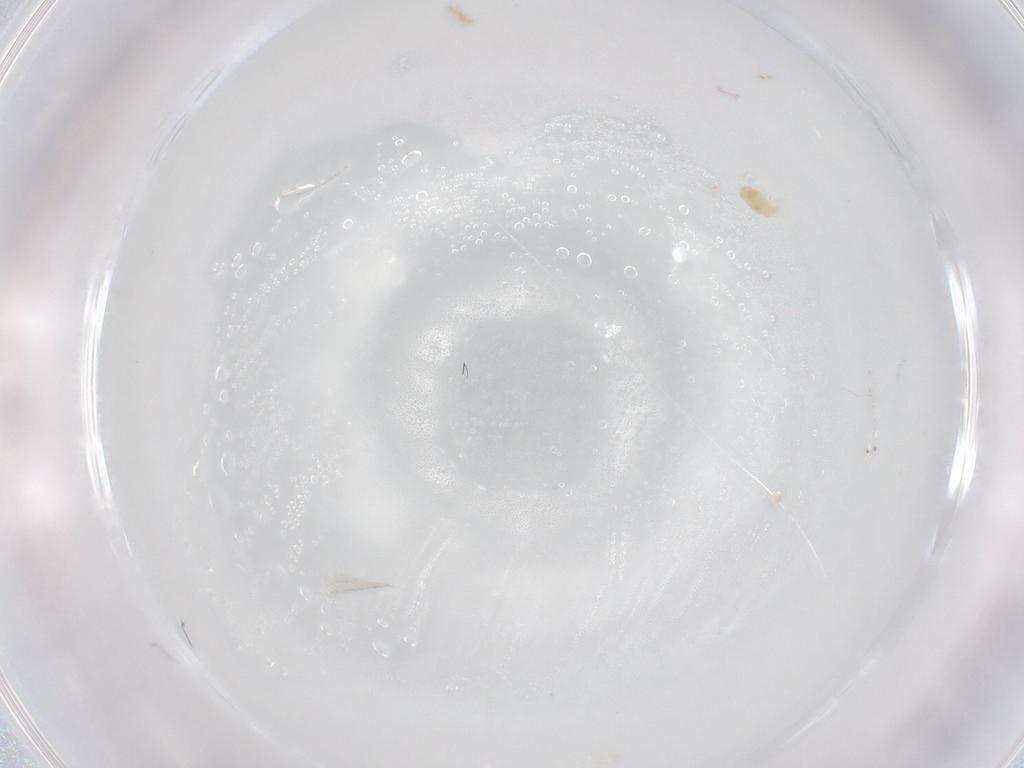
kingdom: Animalia
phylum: Arthropoda
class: Arachnida
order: Trombidiformes
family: Eupodidae
